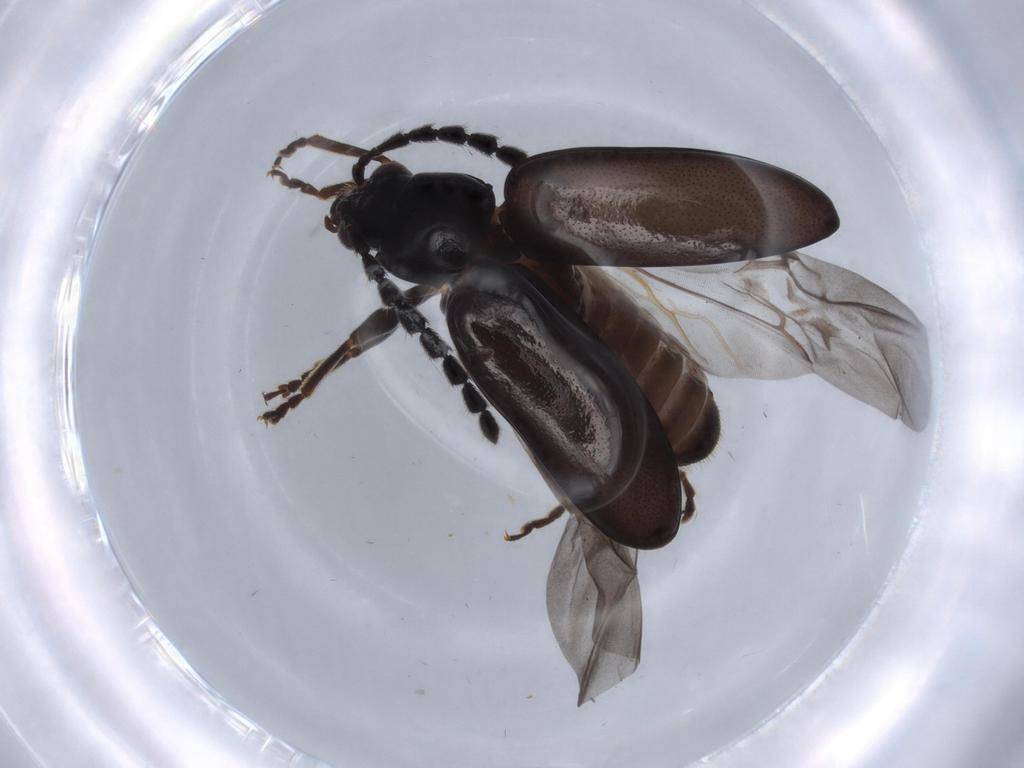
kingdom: Animalia
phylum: Arthropoda
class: Insecta
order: Coleoptera
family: Chrysomelidae
